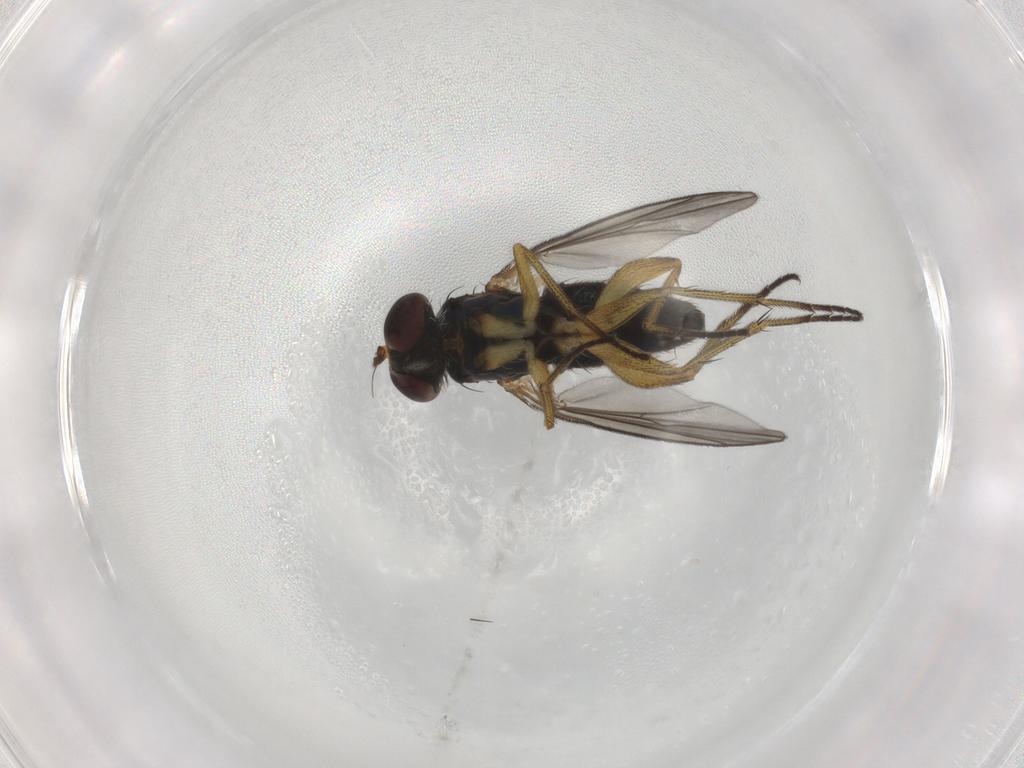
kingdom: Animalia
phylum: Arthropoda
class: Insecta
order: Diptera
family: Dolichopodidae
